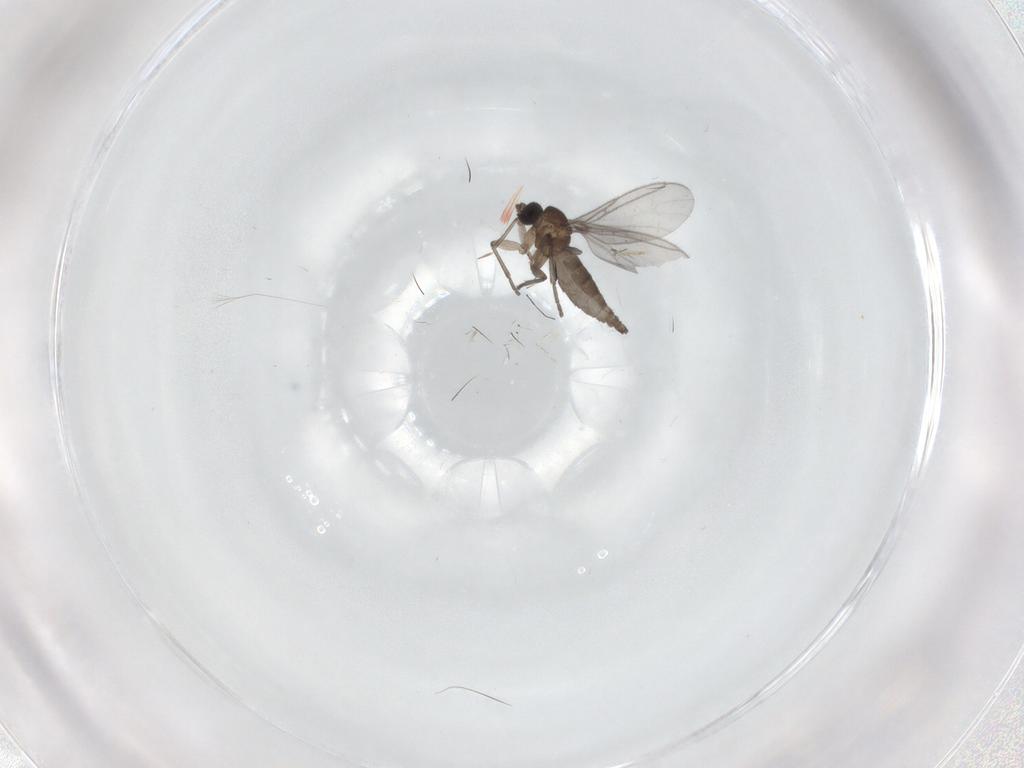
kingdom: Animalia
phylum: Arthropoda
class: Insecta
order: Diptera
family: Sciaridae
